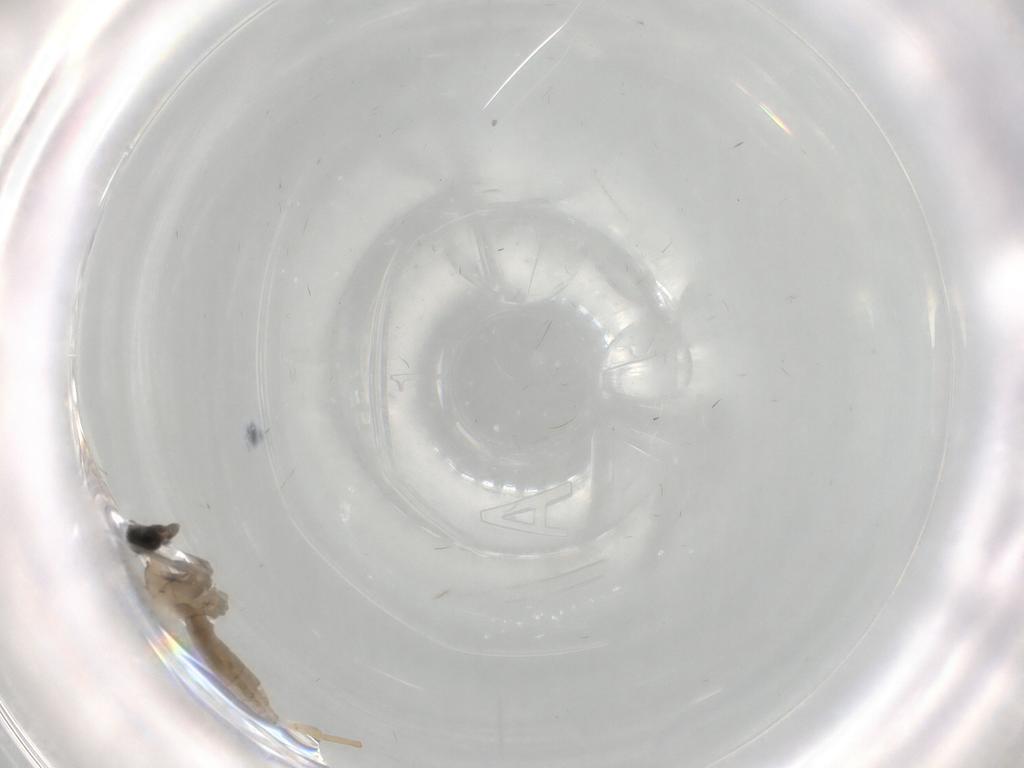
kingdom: Animalia
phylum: Arthropoda
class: Insecta
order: Diptera
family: Cecidomyiidae
